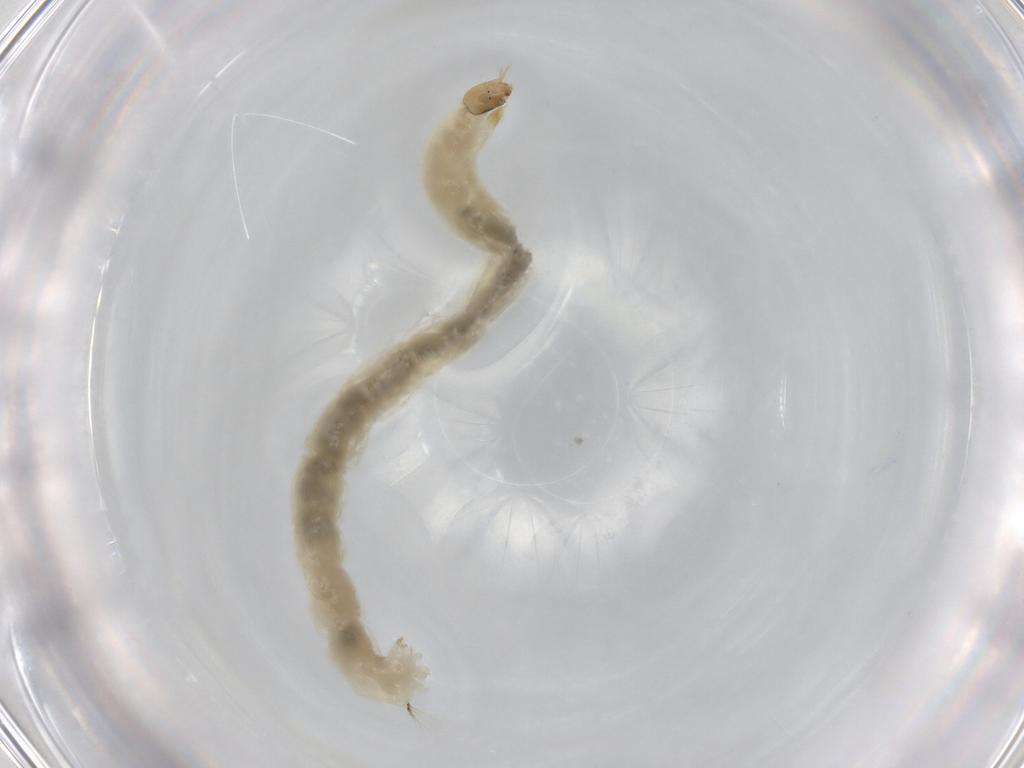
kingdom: Animalia
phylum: Arthropoda
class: Insecta
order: Diptera
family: Chironomidae
